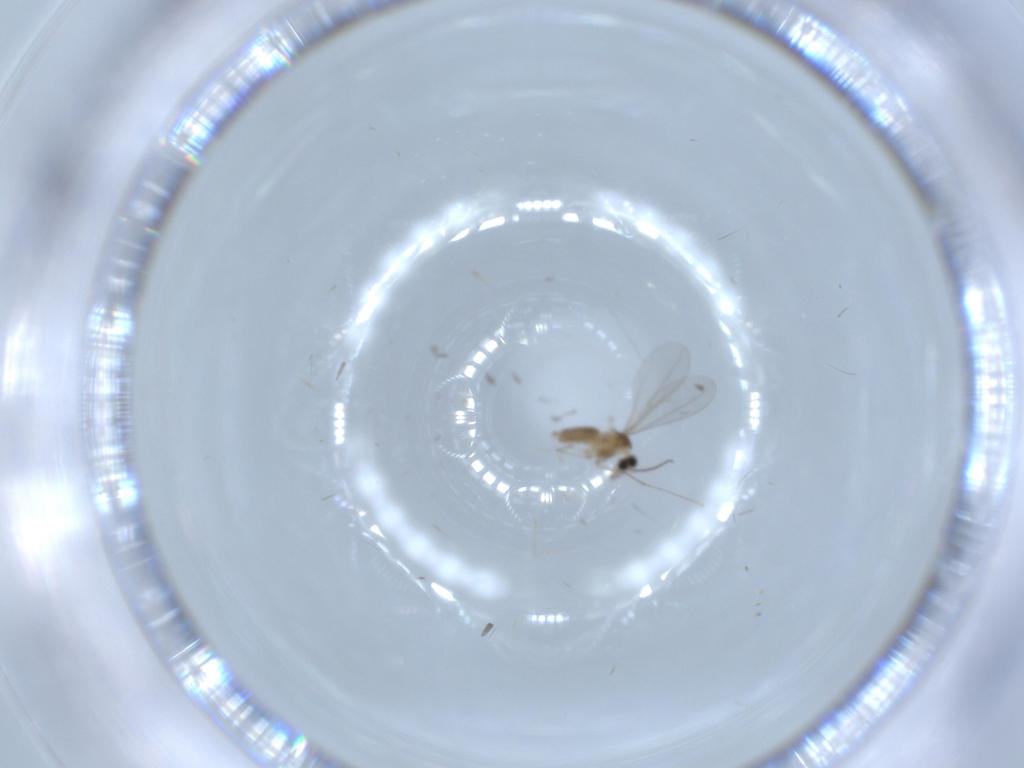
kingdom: Animalia
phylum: Arthropoda
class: Insecta
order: Diptera
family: Cecidomyiidae
